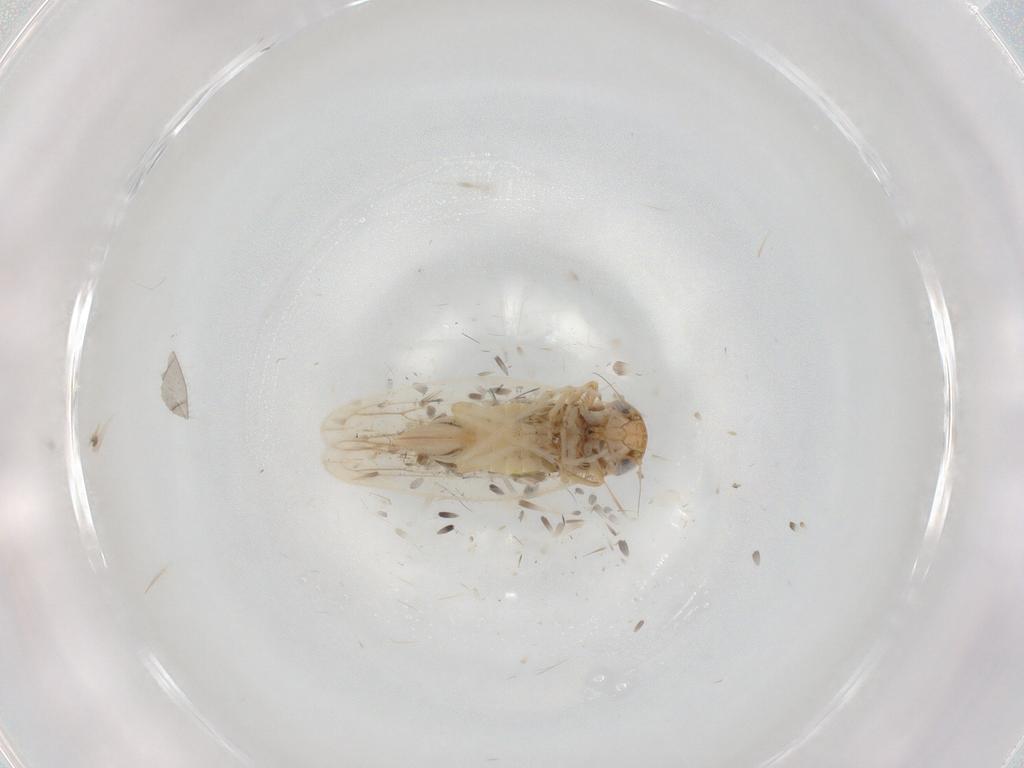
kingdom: Animalia
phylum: Arthropoda
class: Insecta
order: Hemiptera
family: Cicadellidae
